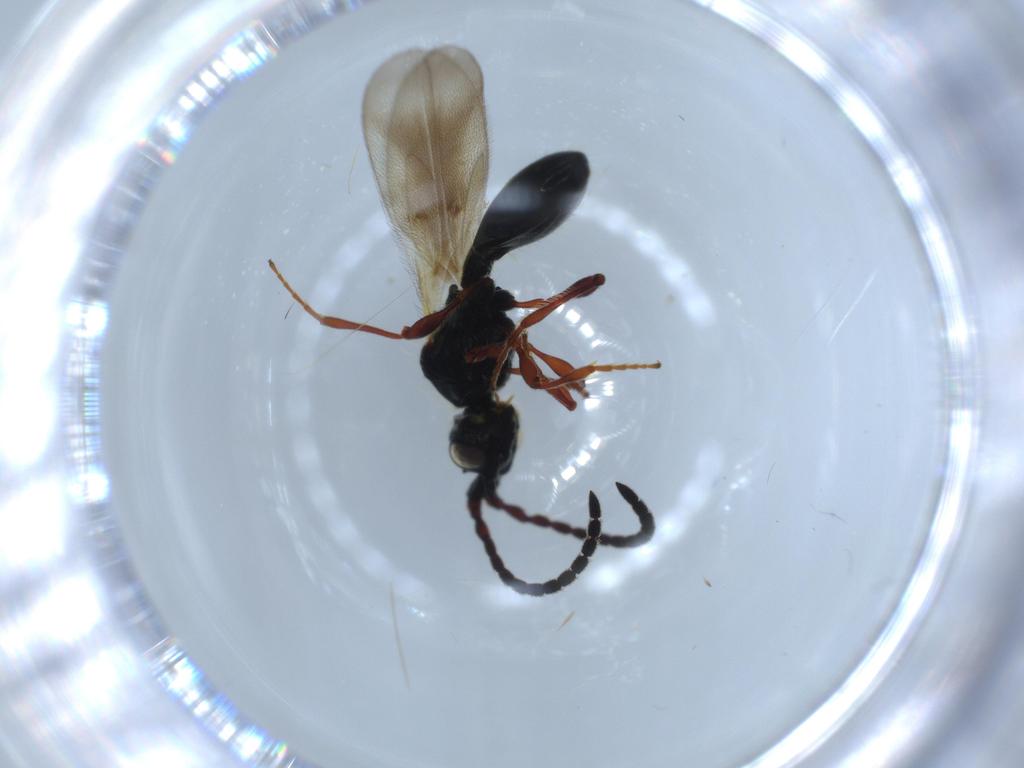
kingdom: Animalia
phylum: Arthropoda
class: Insecta
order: Hymenoptera
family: Diapriidae
